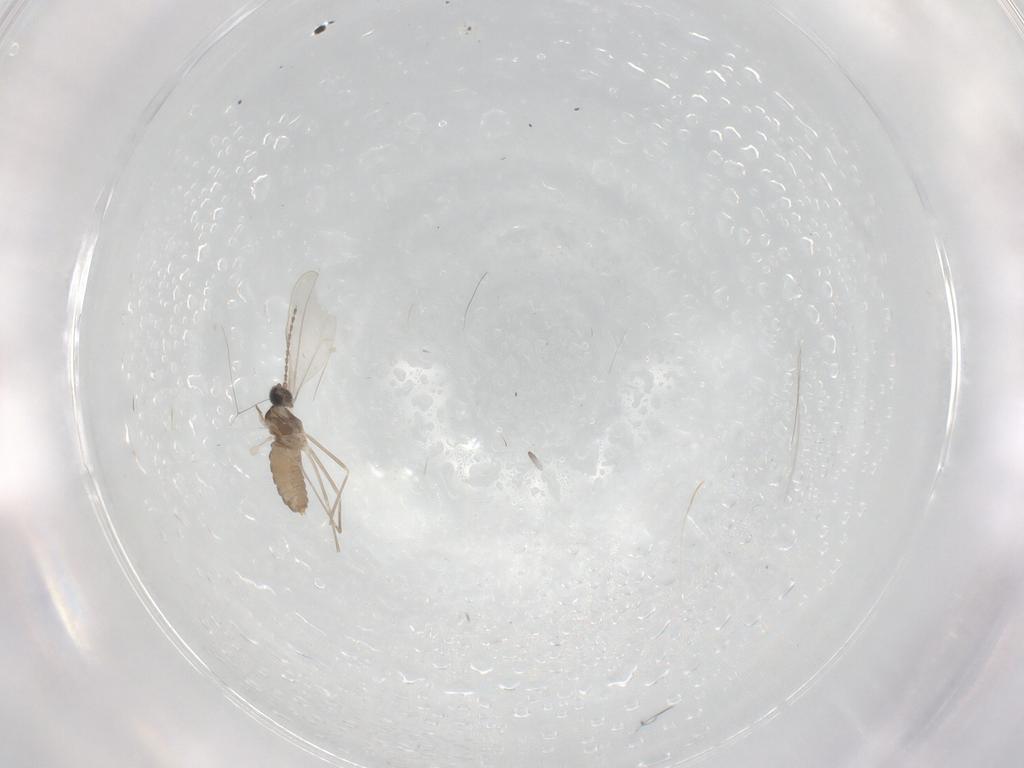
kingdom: Animalia
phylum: Arthropoda
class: Insecta
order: Diptera
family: Cecidomyiidae
